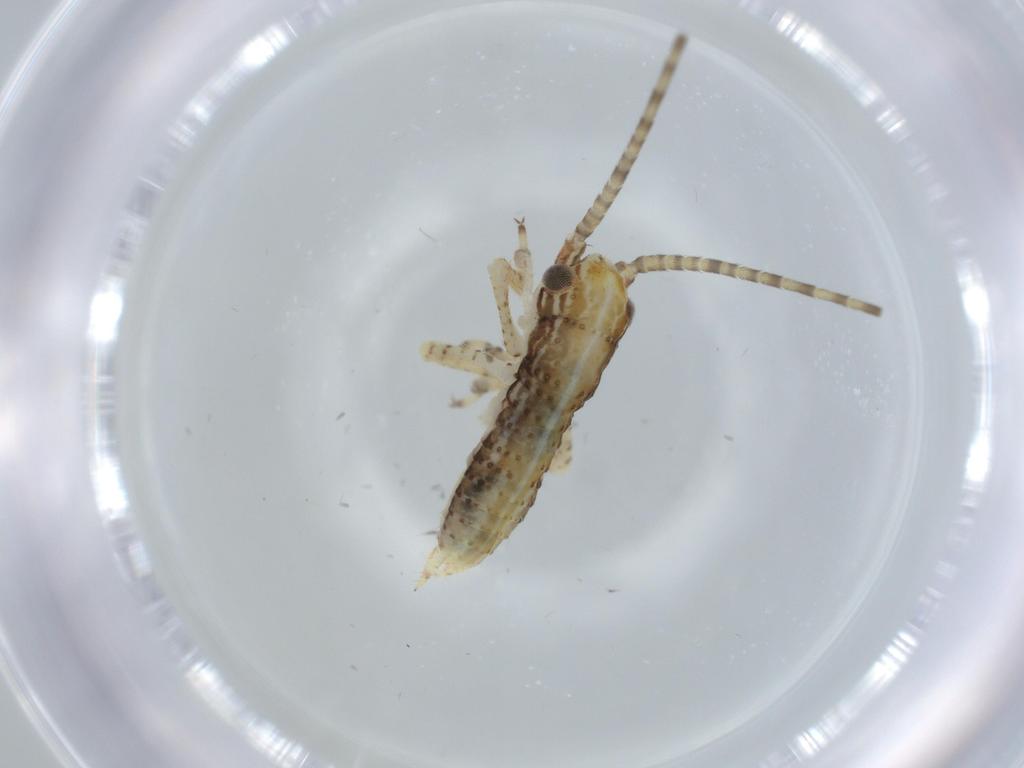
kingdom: Animalia
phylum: Arthropoda
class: Insecta
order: Orthoptera
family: Gryllidae
